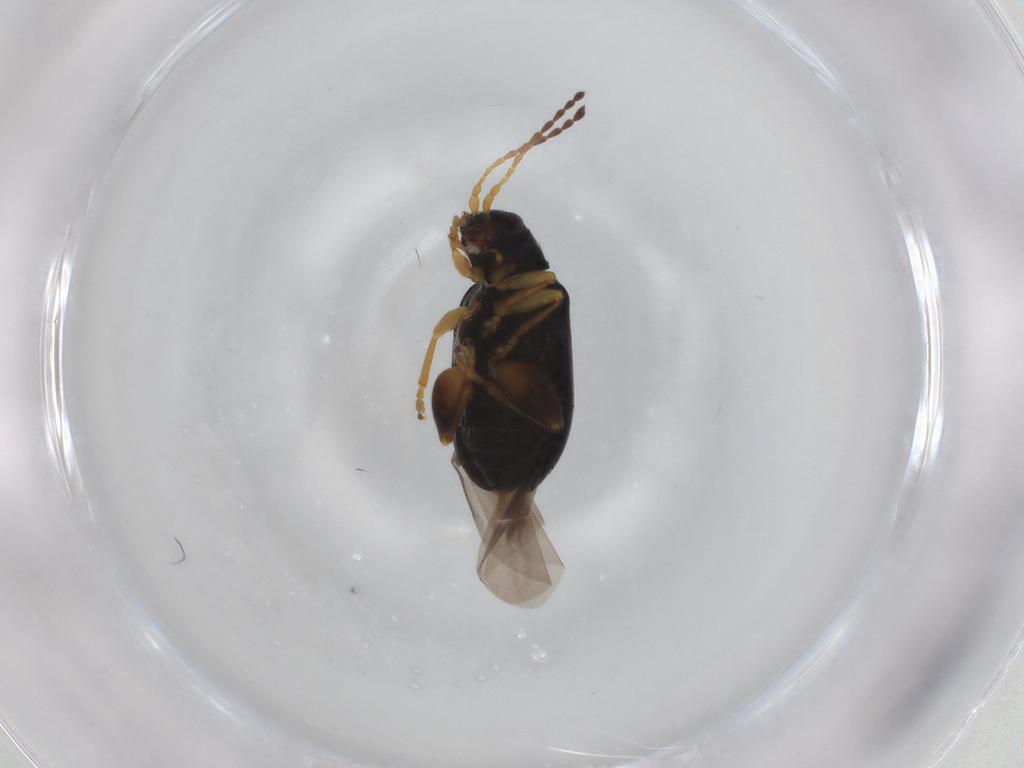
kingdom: Animalia
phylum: Arthropoda
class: Insecta
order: Coleoptera
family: Chrysomelidae
